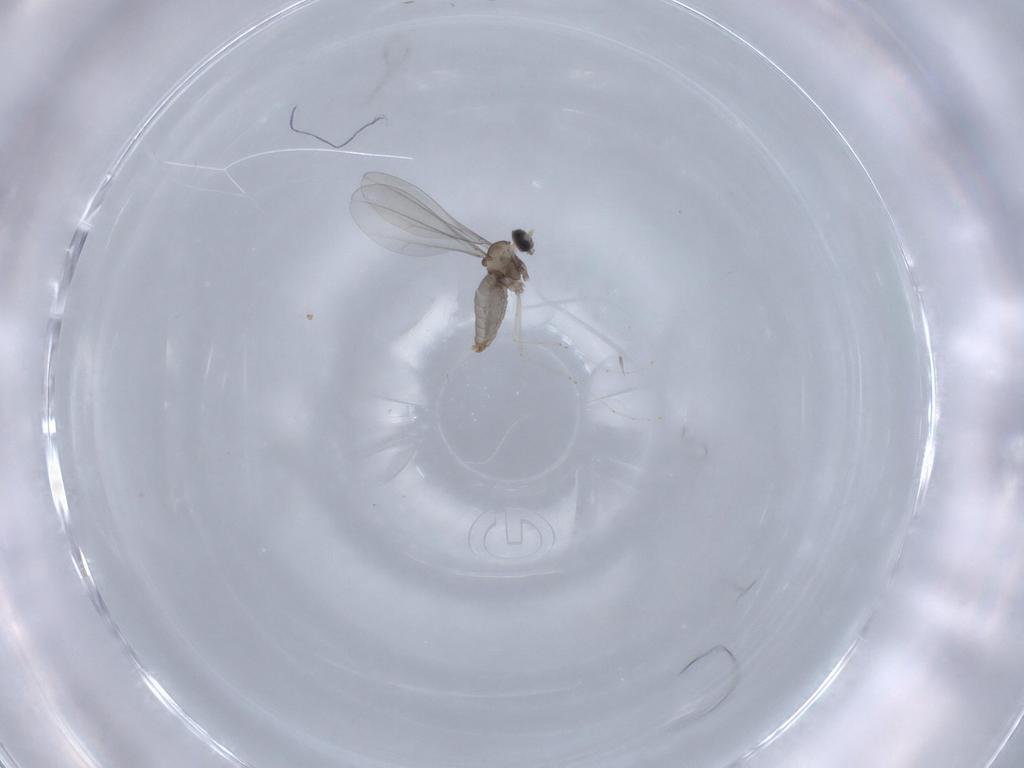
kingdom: Animalia
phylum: Arthropoda
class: Insecta
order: Diptera
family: Cecidomyiidae
